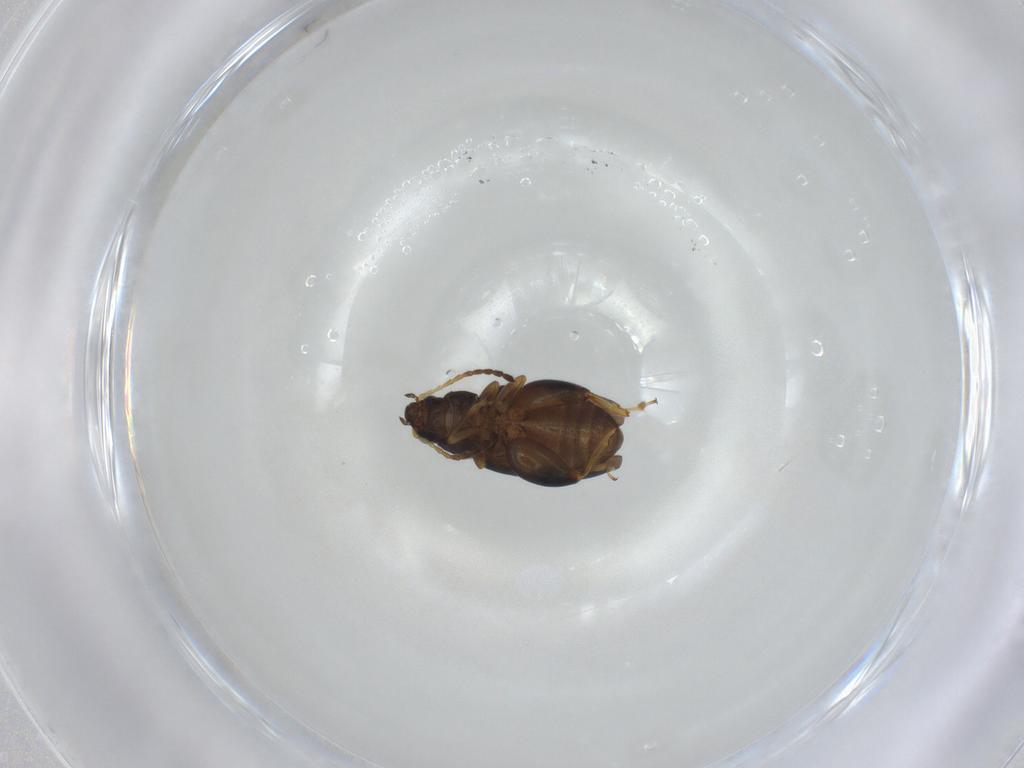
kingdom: Animalia
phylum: Arthropoda
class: Insecta
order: Coleoptera
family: Chrysomelidae
